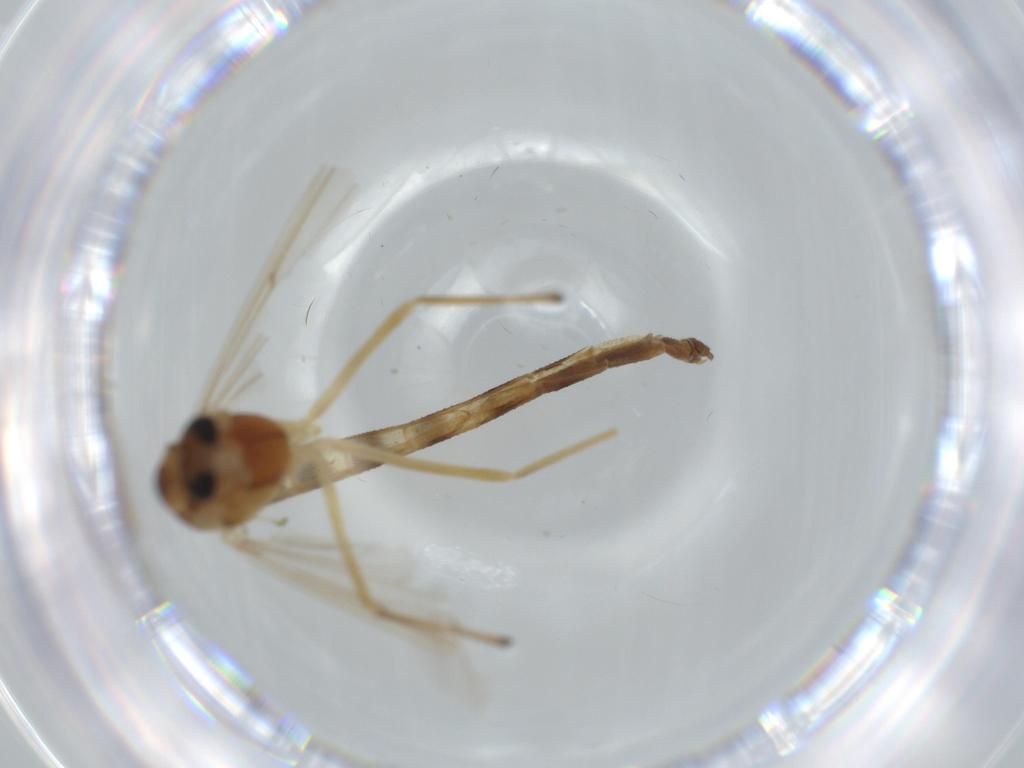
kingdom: Animalia
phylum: Arthropoda
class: Insecta
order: Diptera
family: Chironomidae
